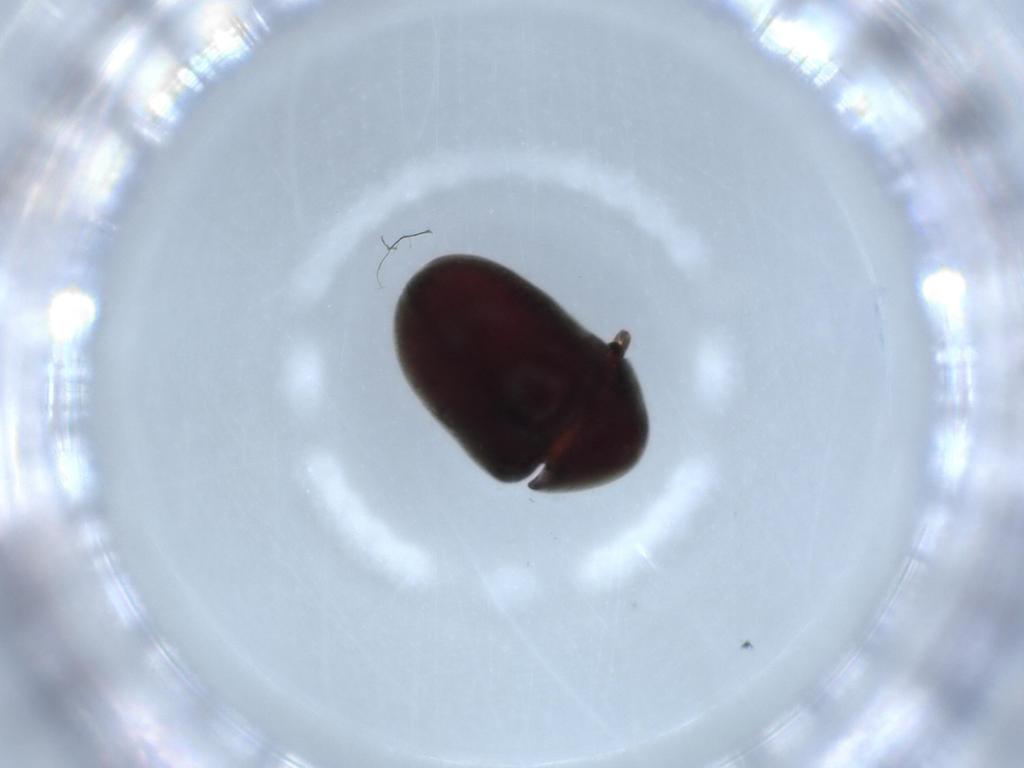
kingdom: Animalia
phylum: Arthropoda
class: Insecta
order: Coleoptera
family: Ptinidae
